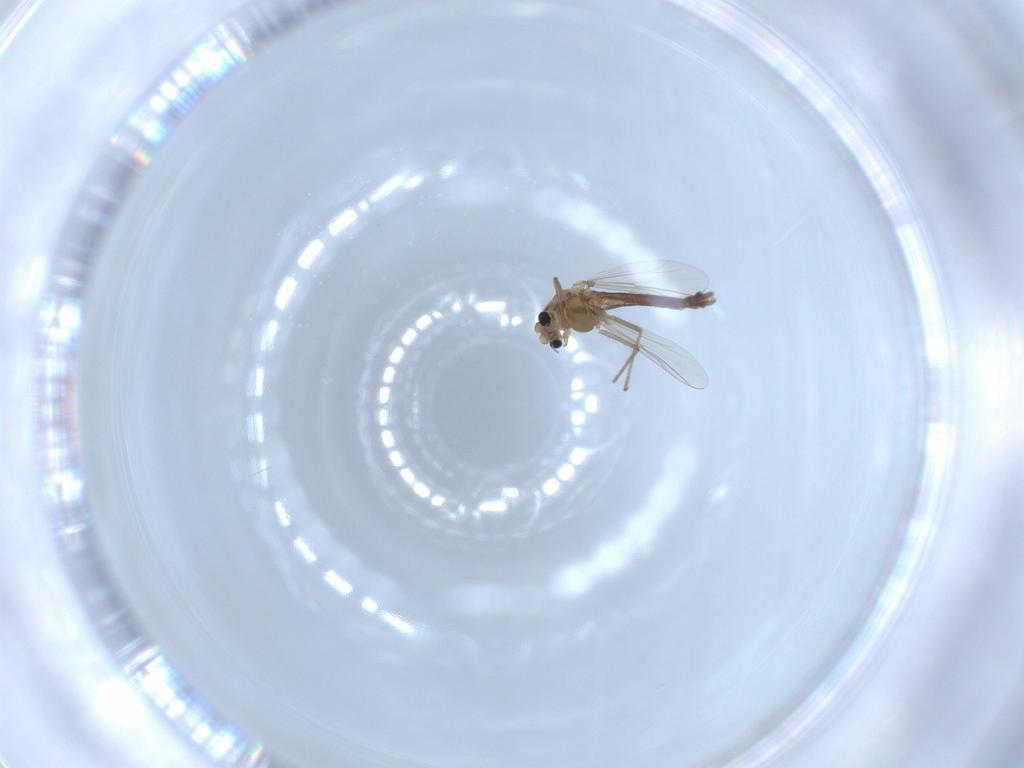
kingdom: Animalia
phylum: Arthropoda
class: Insecta
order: Diptera
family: Chironomidae
